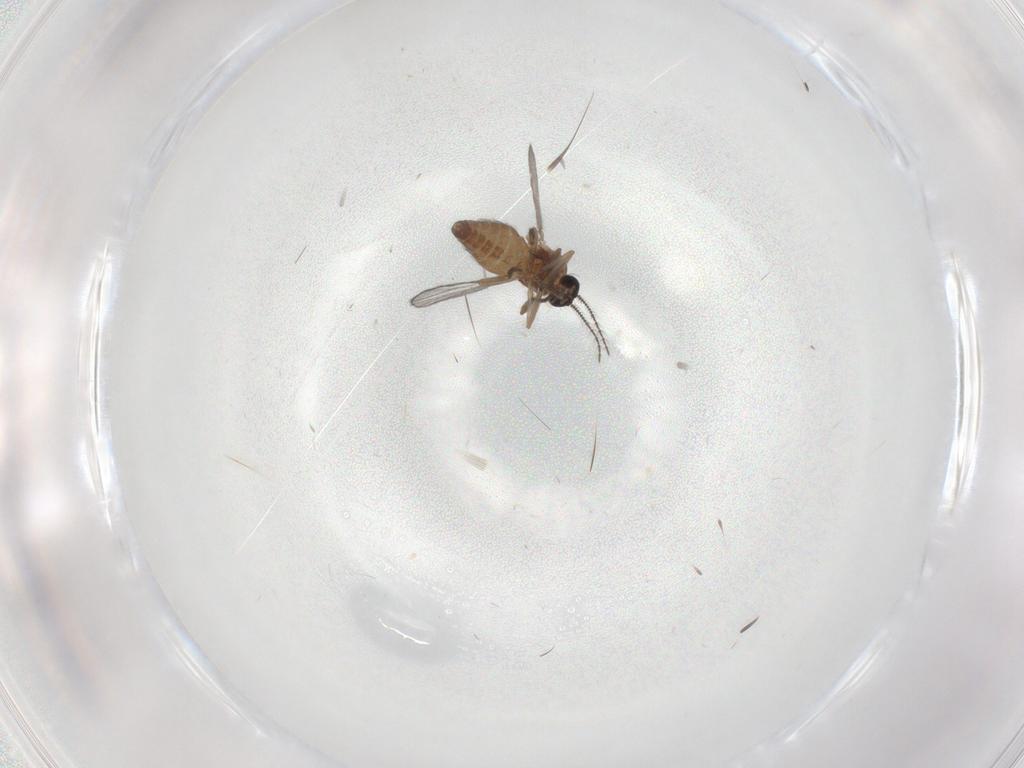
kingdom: Animalia
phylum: Arthropoda
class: Insecta
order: Diptera
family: Ceratopogonidae
